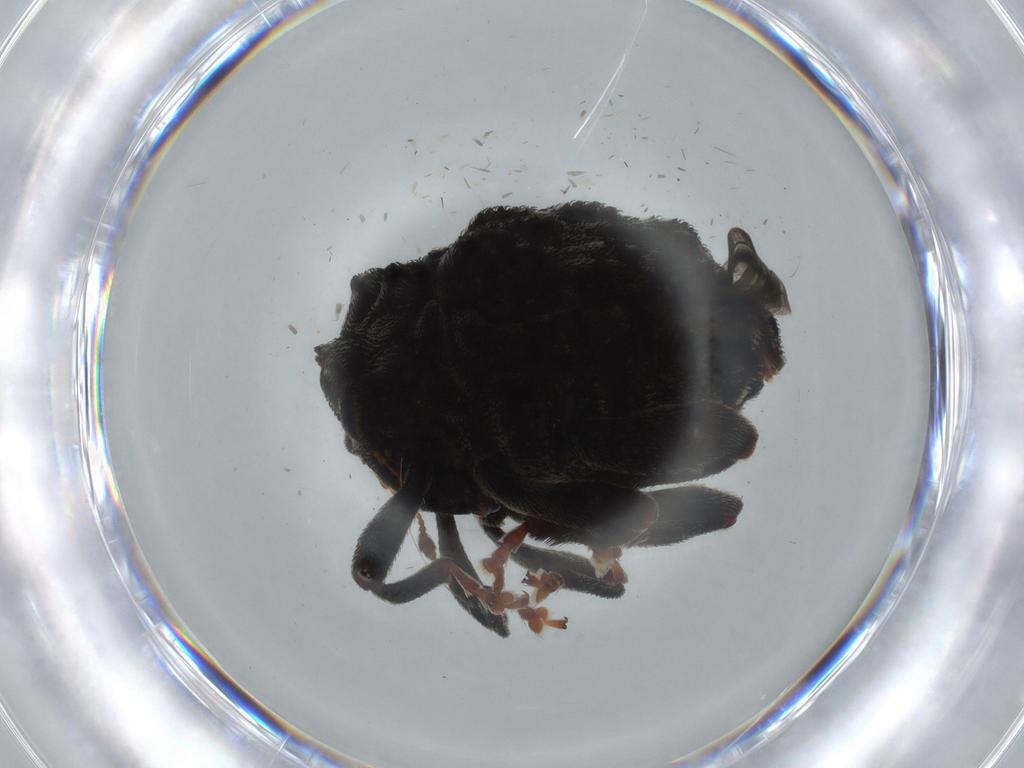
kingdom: Animalia
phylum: Arthropoda
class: Insecta
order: Coleoptera
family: Curculionidae
